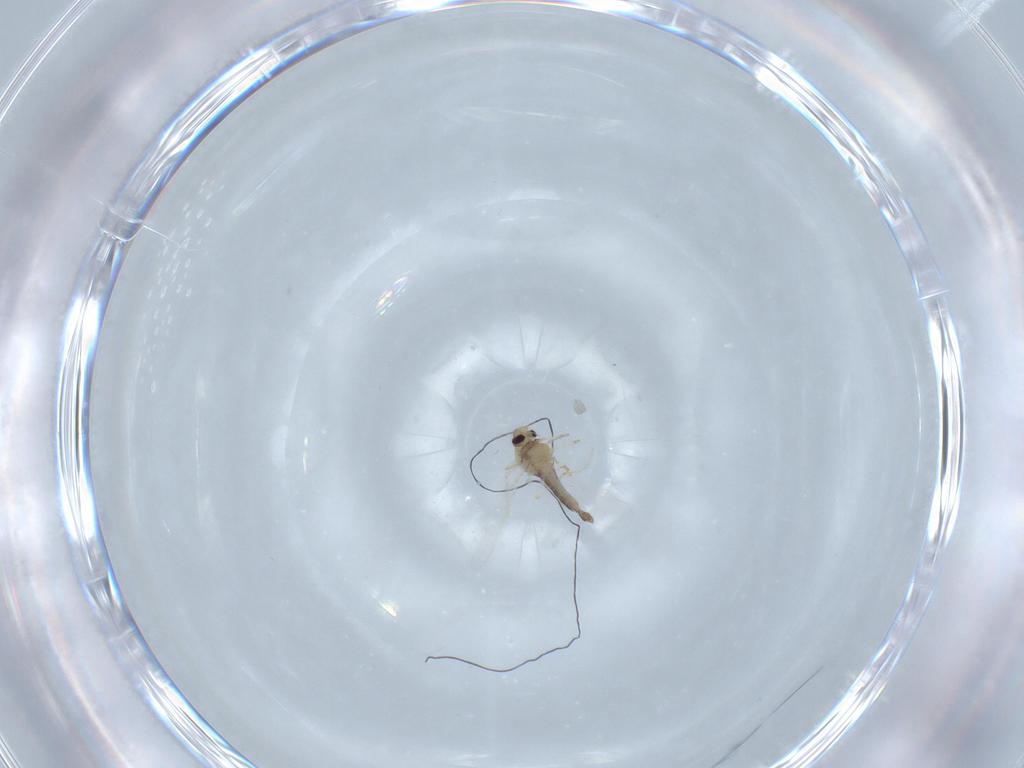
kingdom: Animalia
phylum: Arthropoda
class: Insecta
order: Diptera
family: Chironomidae
